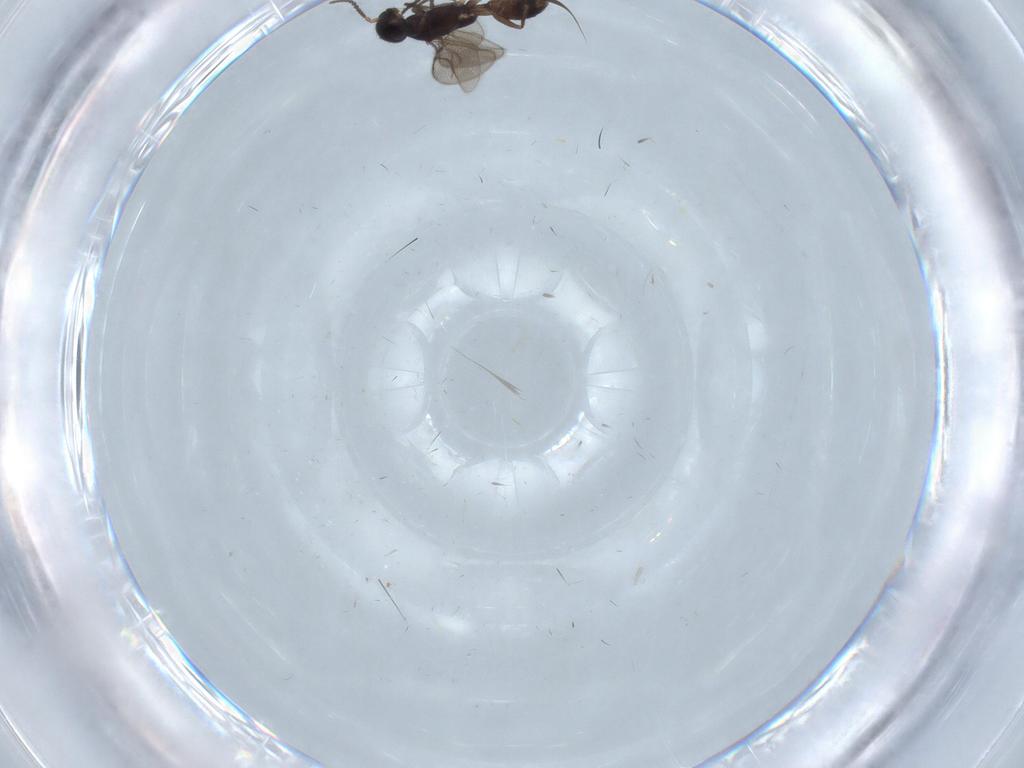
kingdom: Animalia
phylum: Arthropoda
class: Insecta
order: Hymenoptera
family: Bethylidae
